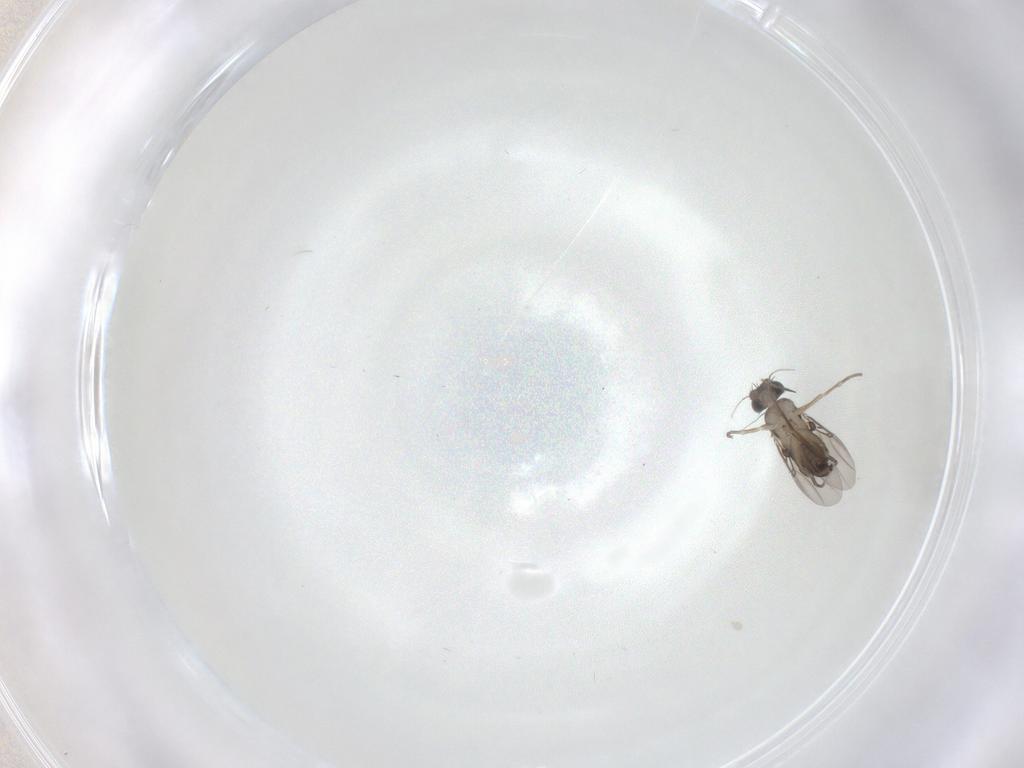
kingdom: Animalia
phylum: Arthropoda
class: Insecta
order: Diptera
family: Phoridae
